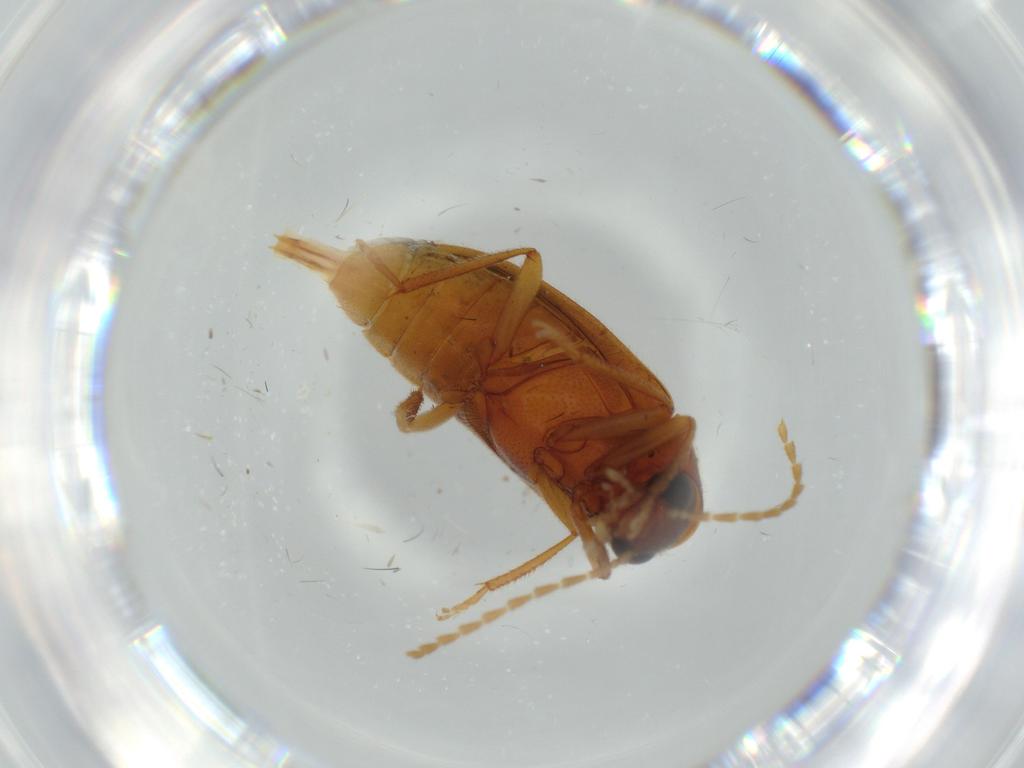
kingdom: Animalia
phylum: Arthropoda
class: Insecta
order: Coleoptera
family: Ptilodactylidae
